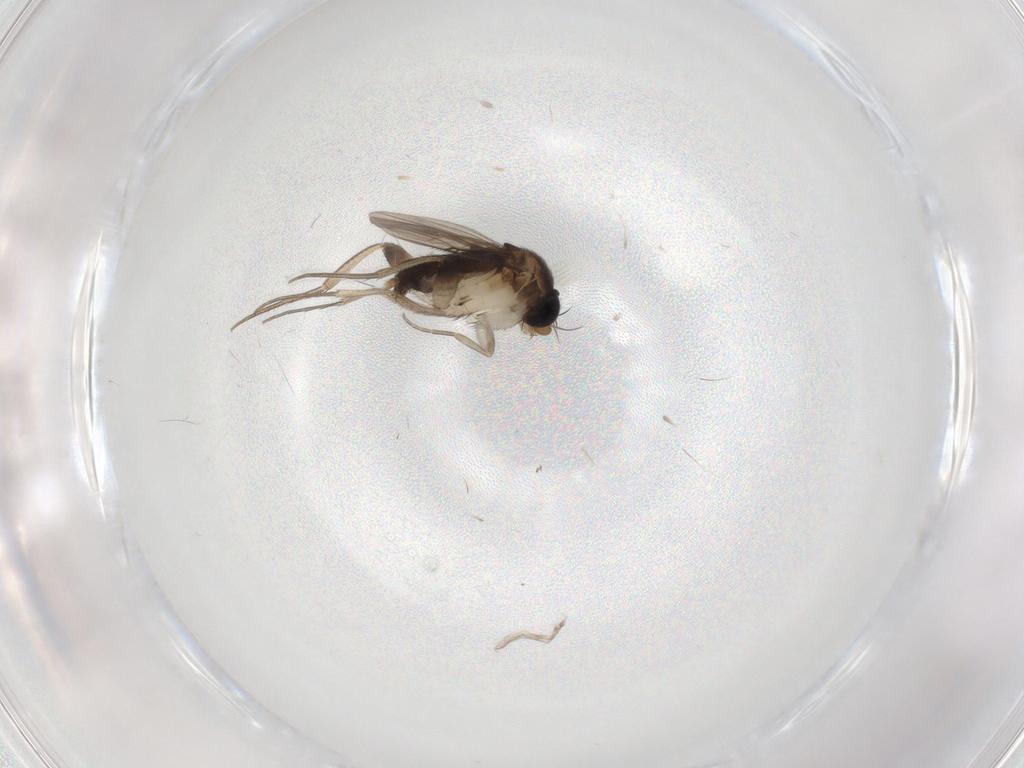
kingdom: Animalia
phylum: Arthropoda
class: Insecta
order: Diptera
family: Phoridae
